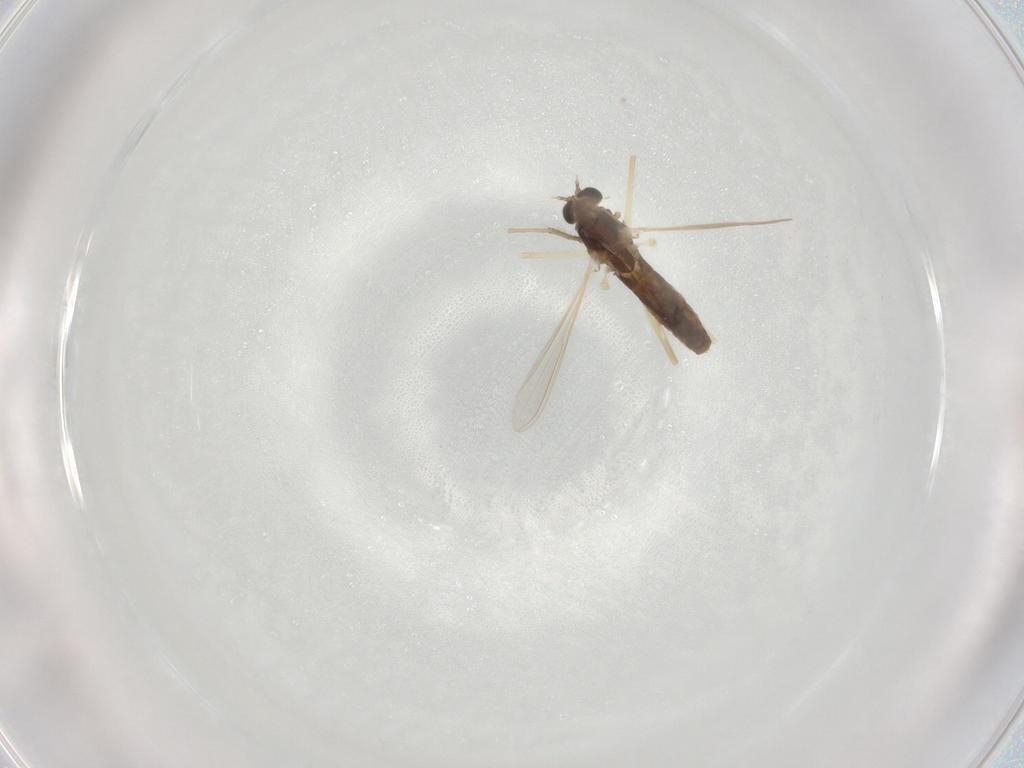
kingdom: Animalia
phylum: Arthropoda
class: Insecta
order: Diptera
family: Chironomidae
